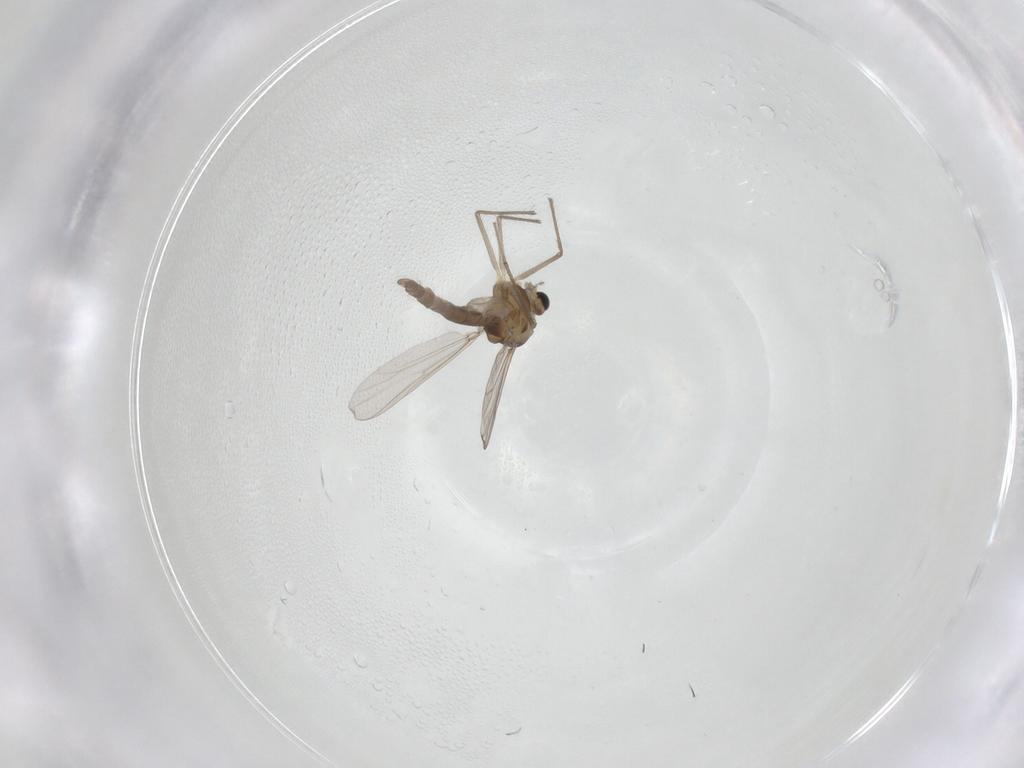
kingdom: Animalia
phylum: Arthropoda
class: Insecta
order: Diptera
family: Chironomidae
